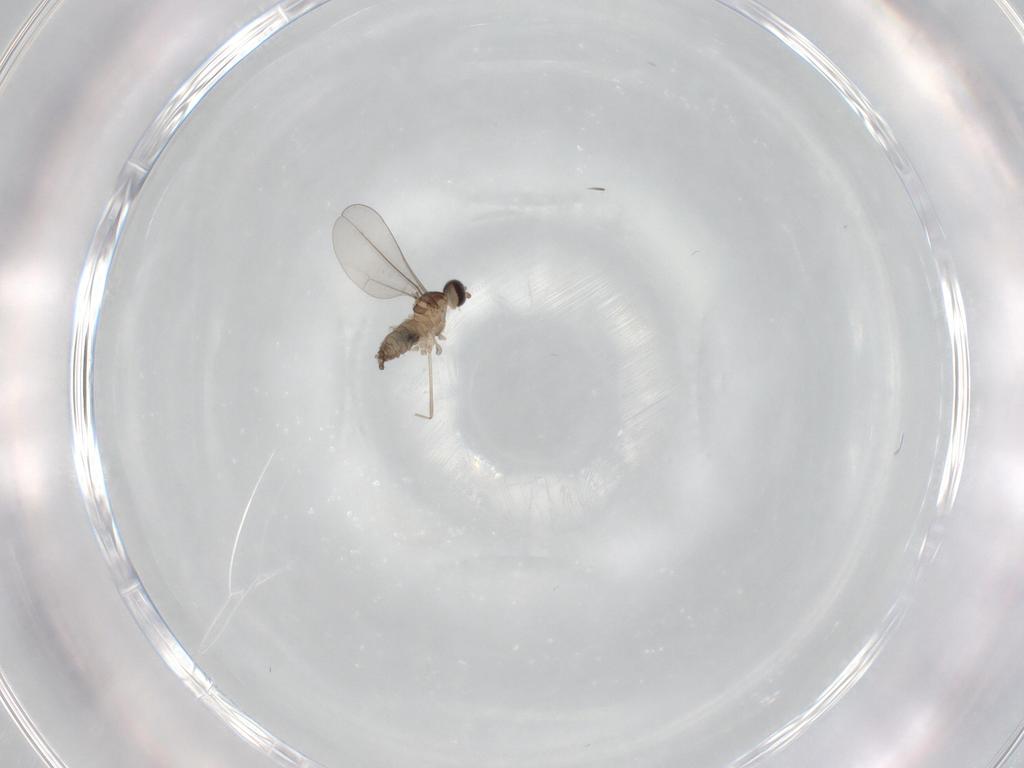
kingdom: Animalia
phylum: Arthropoda
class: Insecta
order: Diptera
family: Cecidomyiidae
